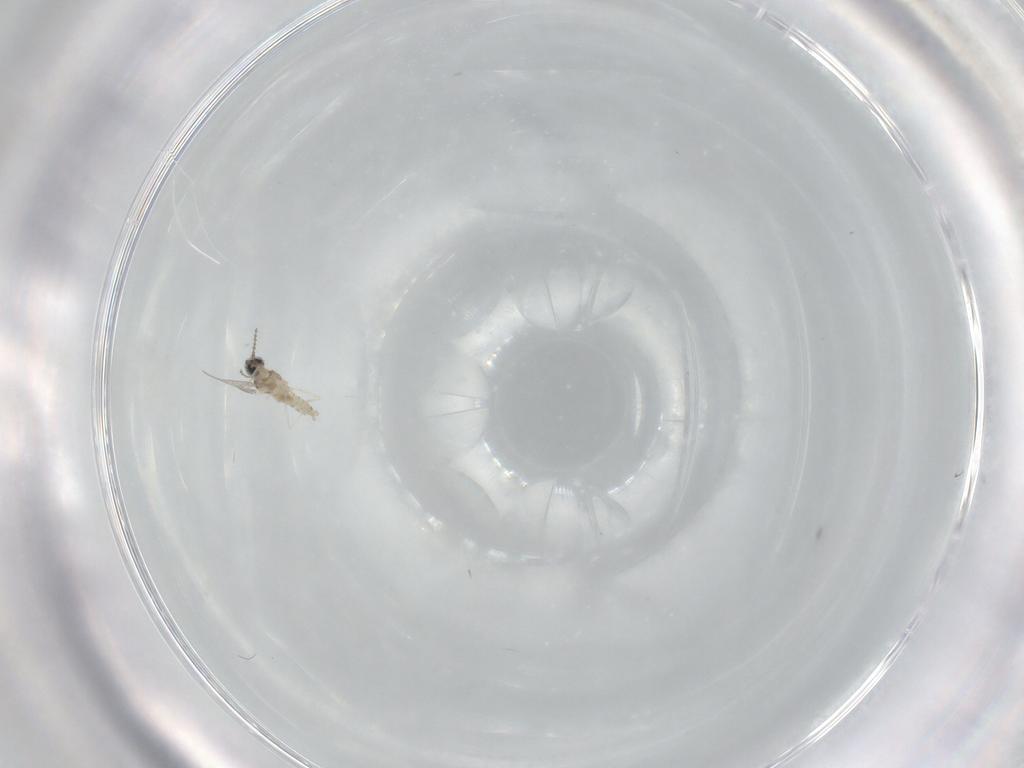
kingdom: Animalia
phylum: Arthropoda
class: Insecta
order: Diptera
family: Cecidomyiidae
